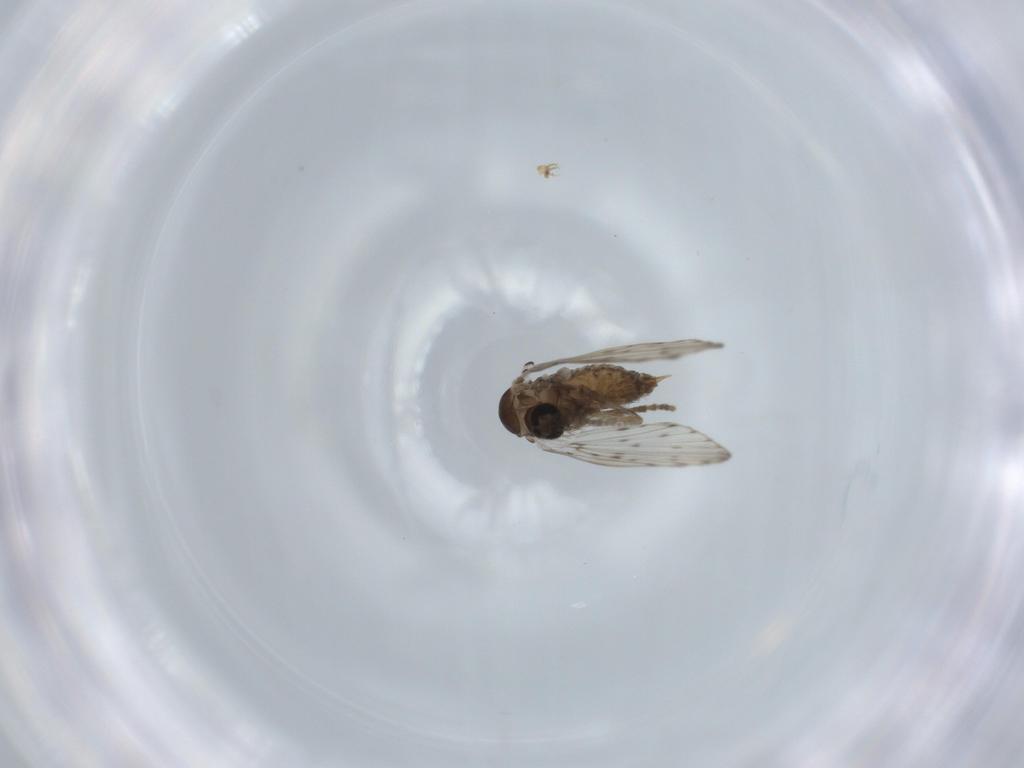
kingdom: Animalia
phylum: Arthropoda
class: Insecta
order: Diptera
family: Psychodidae
